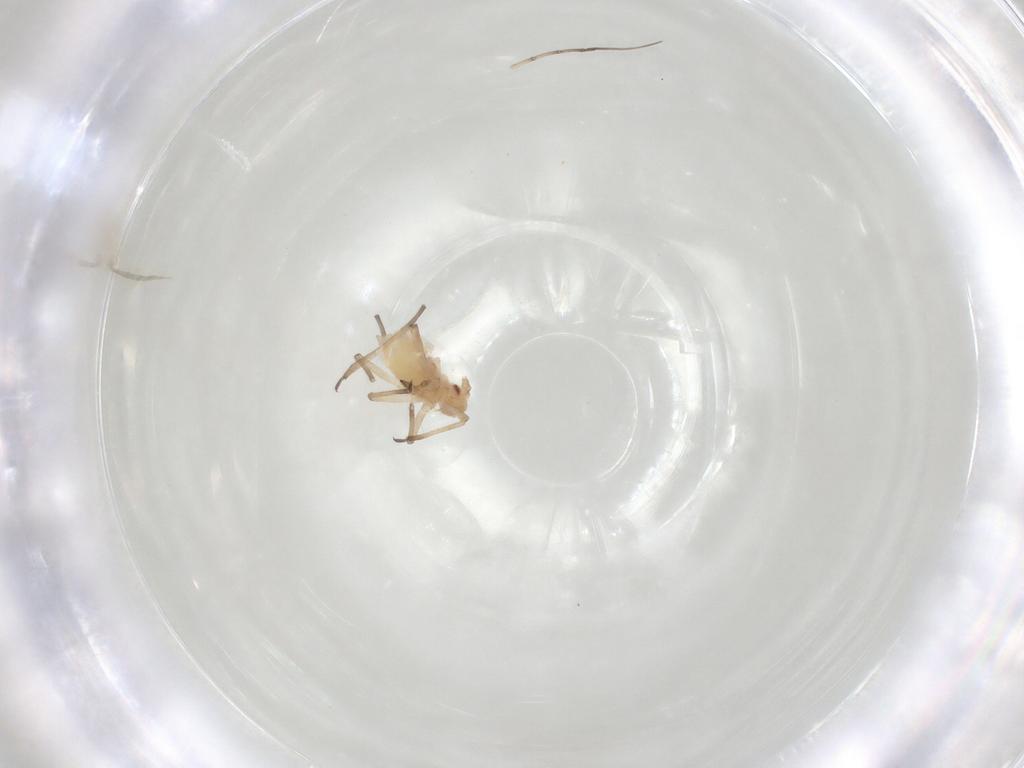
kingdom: Animalia
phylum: Arthropoda
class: Insecta
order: Hemiptera
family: Aphididae
